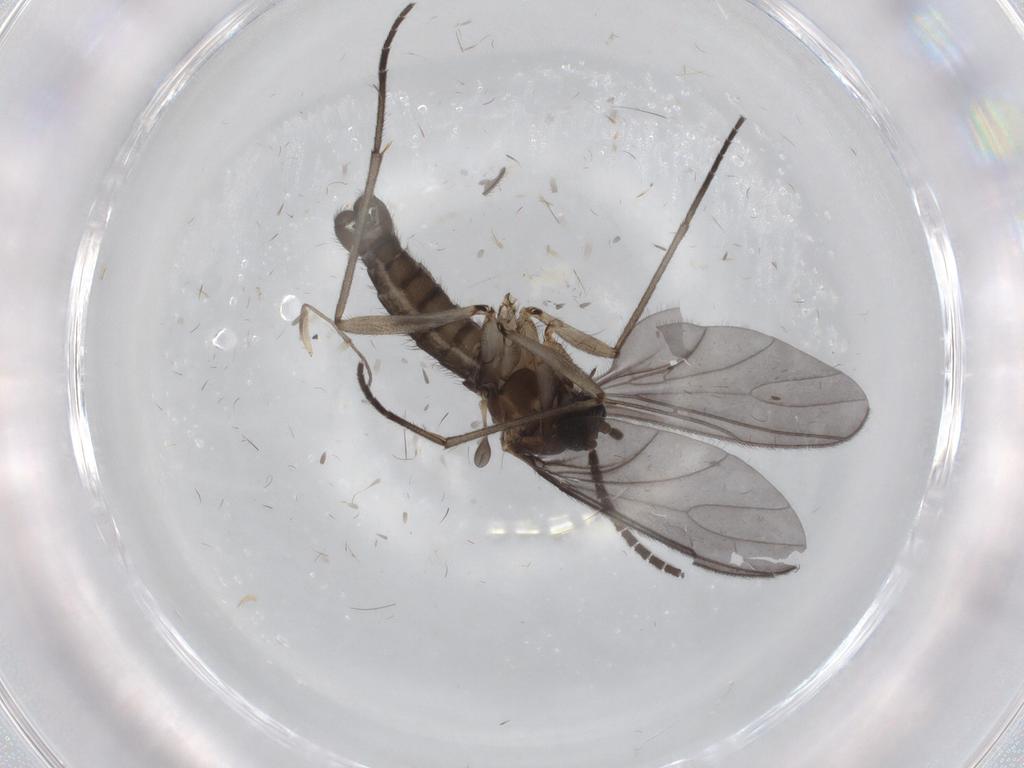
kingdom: Animalia
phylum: Arthropoda
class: Insecta
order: Diptera
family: Sciaridae
